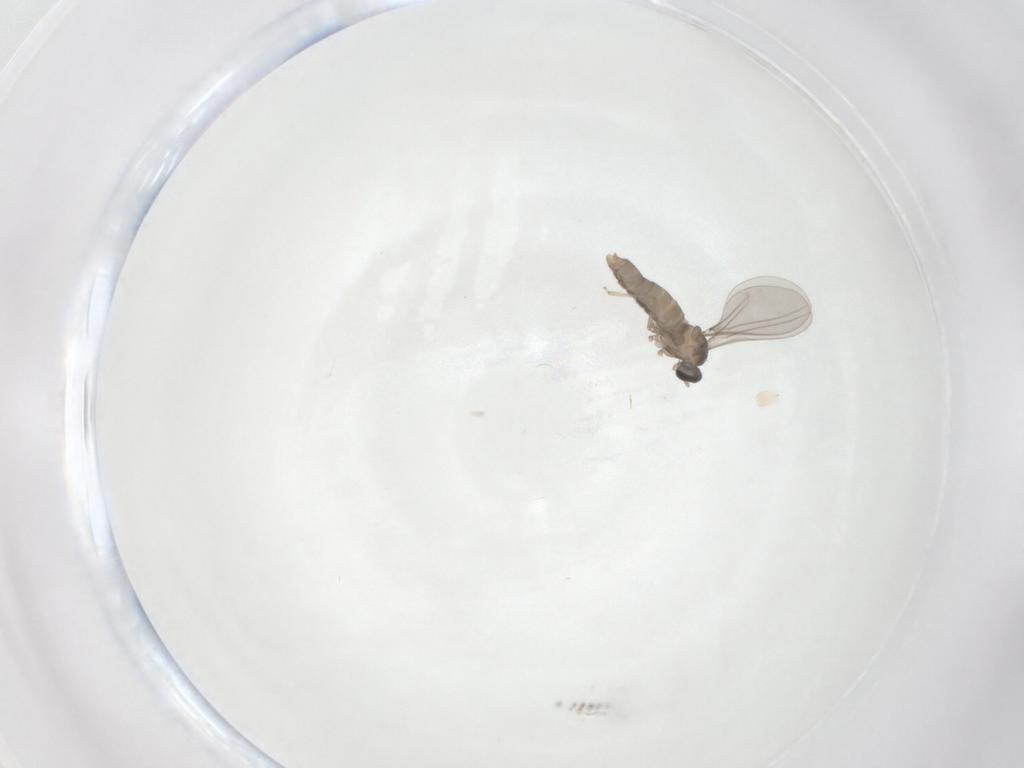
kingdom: Animalia
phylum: Arthropoda
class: Insecta
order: Diptera
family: Cecidomyiidae
